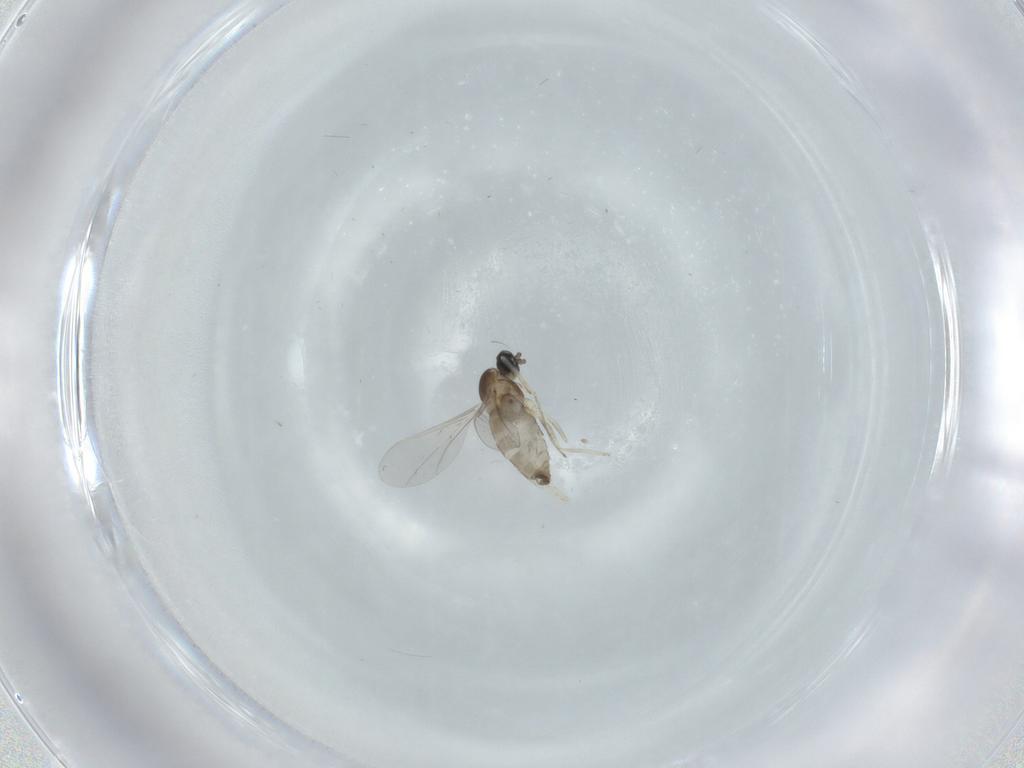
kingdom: Animalia
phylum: Arthropoda
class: Insecta
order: Diptera
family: Cecidomyiidae
